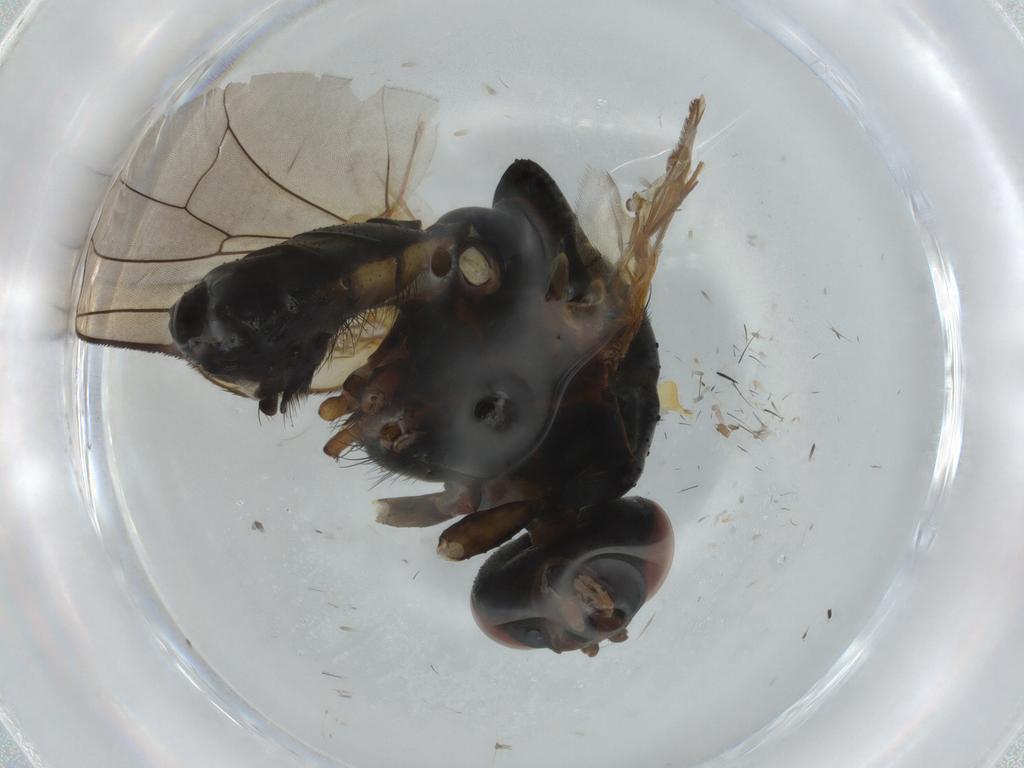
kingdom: Animalia
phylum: Arthropoda
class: Insecta
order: Diptera
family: Anthomyiidae
